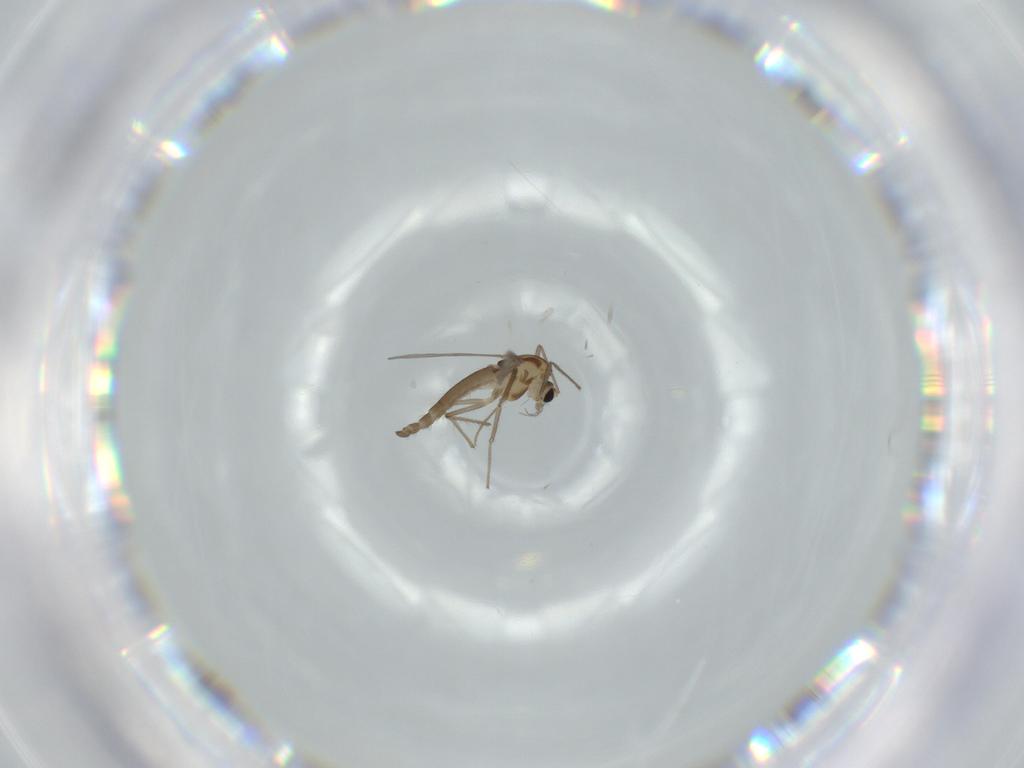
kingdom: Animalia
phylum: Arthropoda
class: Insecta
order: Diptera
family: Chironomidae
